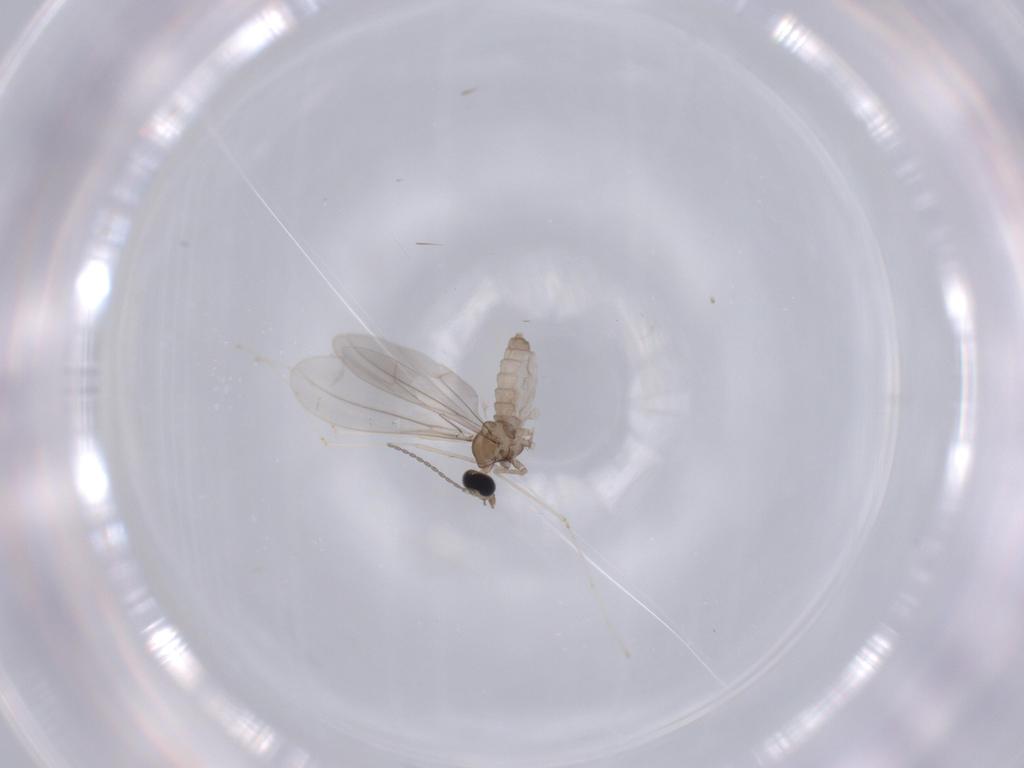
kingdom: Animalia
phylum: Arthropoda
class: Insecta
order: Diptera
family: Cecidomyiidae
